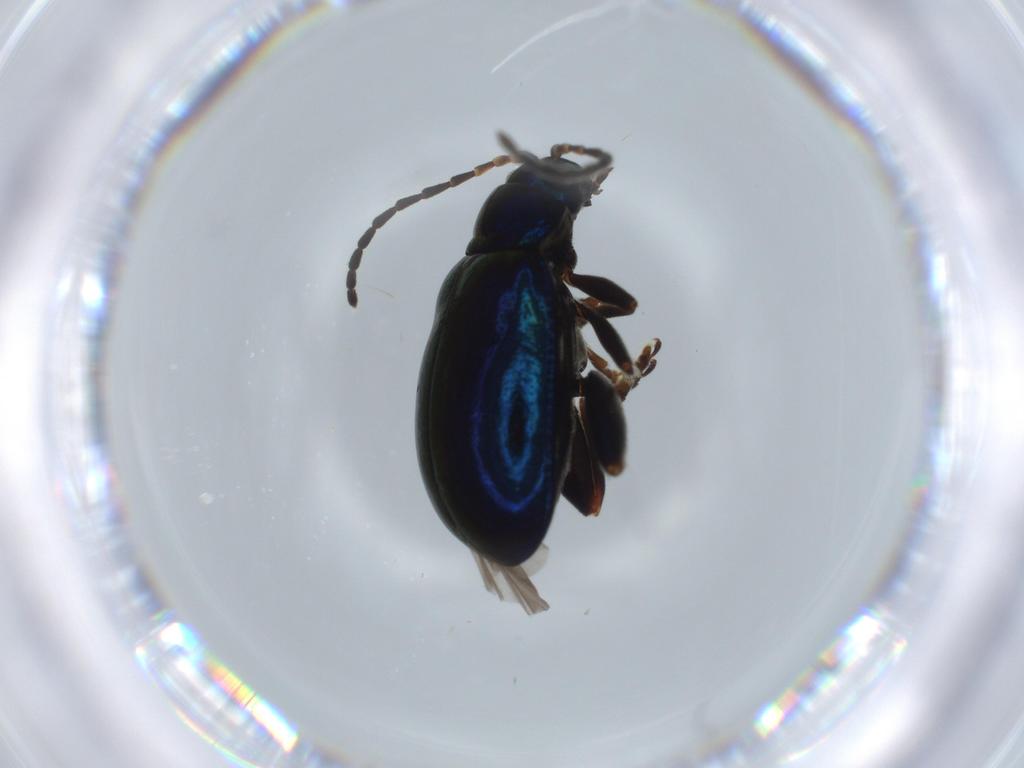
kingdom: Animalia
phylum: Arthropoda
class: Insecta
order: Coleoptera
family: Chrysomelidae
